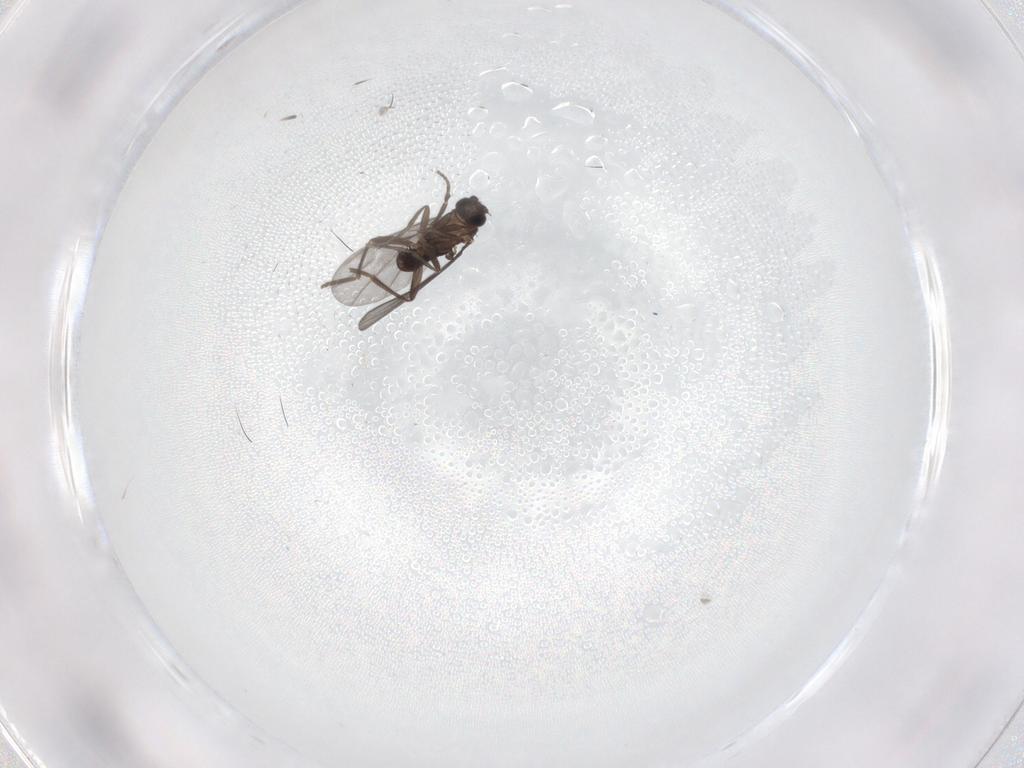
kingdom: Animalia
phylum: Arthropoda
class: Insecta
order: Diptera
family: Phoridae
